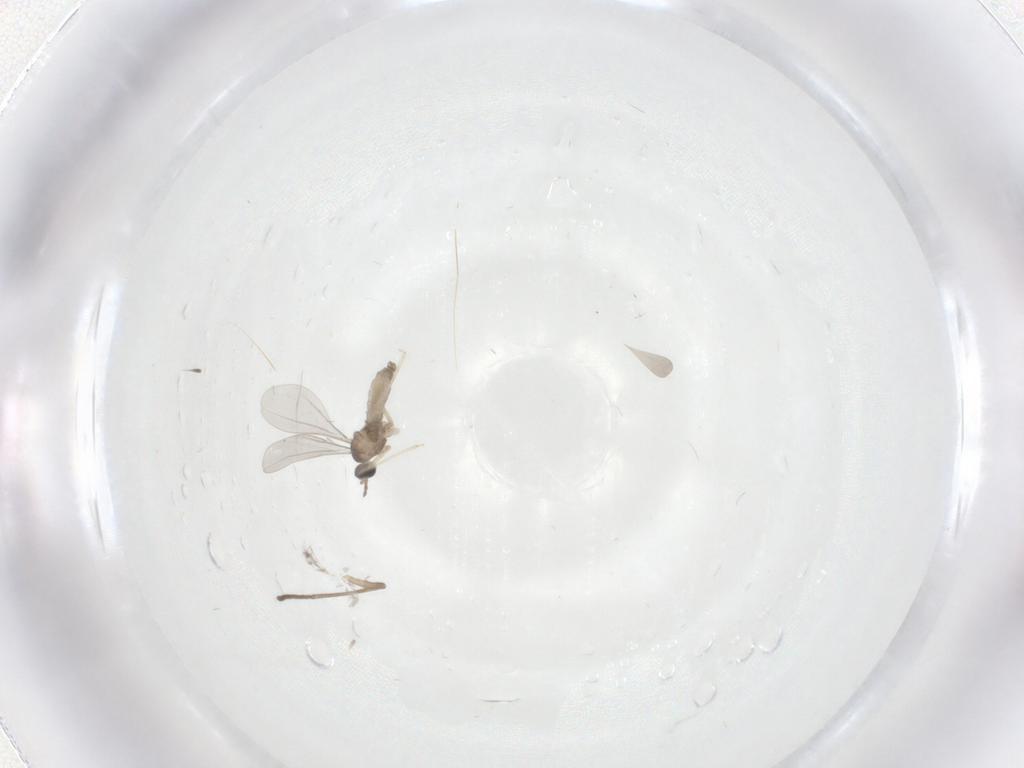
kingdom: Animalia
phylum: Arthropoda
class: Insecta
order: Diptera
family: Psychodidae
